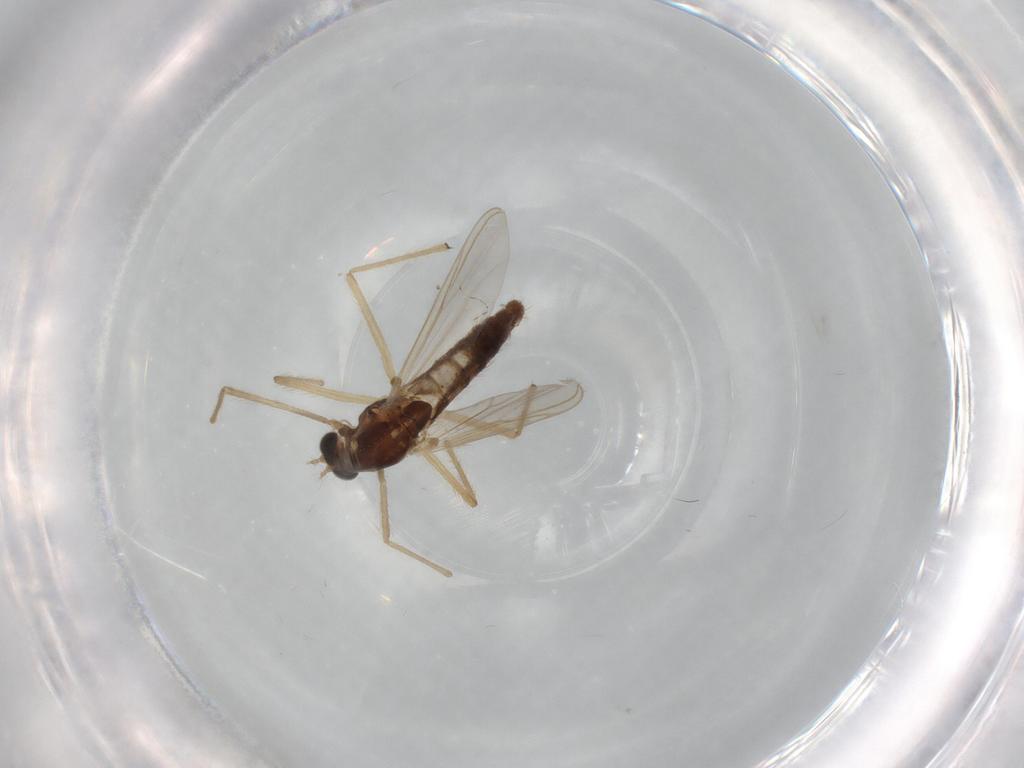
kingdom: Animalia
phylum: Arthropoda
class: Insecta
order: Diptera
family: Chironomidae
